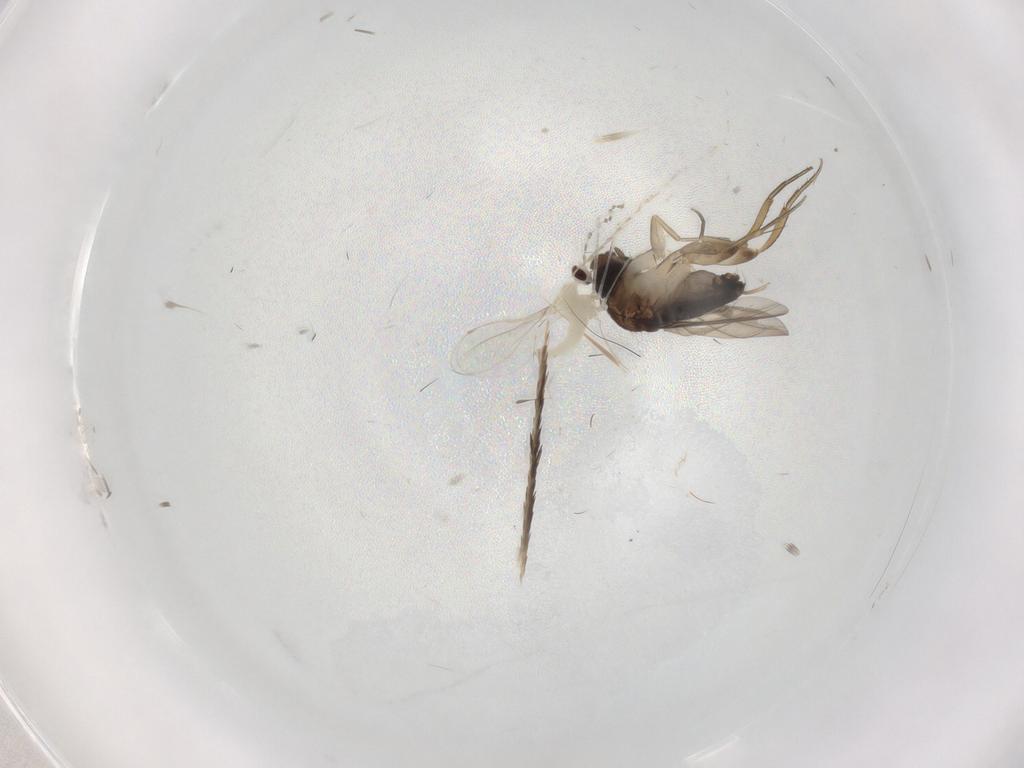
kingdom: Animalia
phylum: Arthropoda
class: Insecta
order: Diptera
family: Cecidomyiidae
